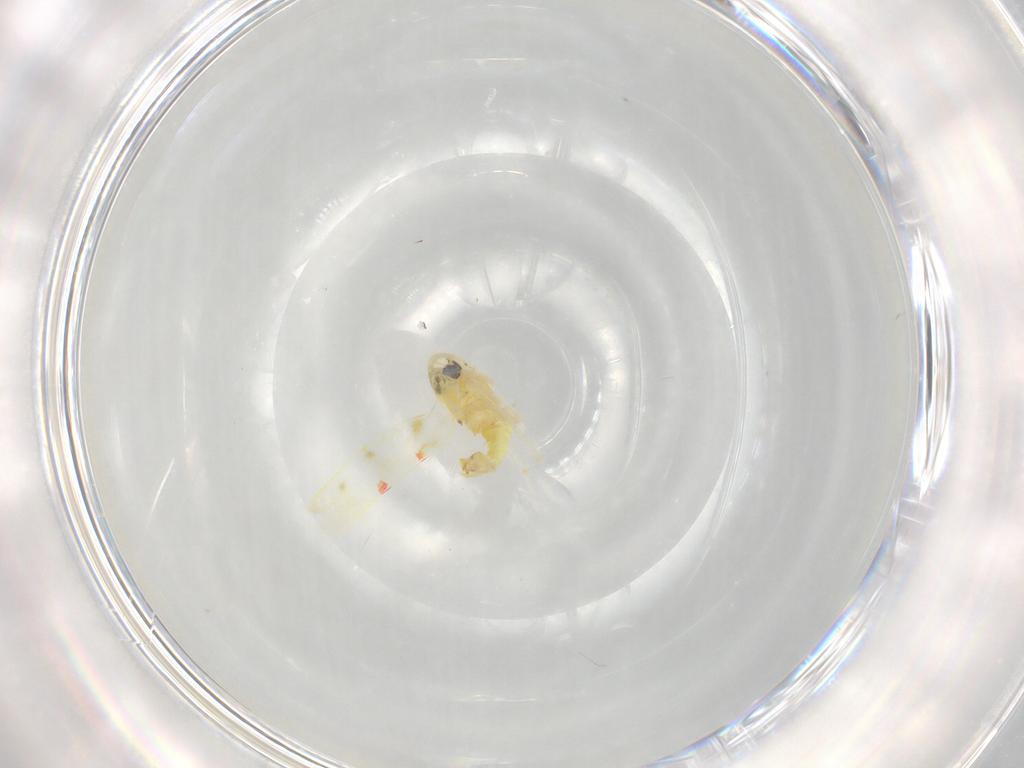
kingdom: Animalia
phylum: Arthropoda
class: Insecta
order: Hemiptera
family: Cicadellidae
